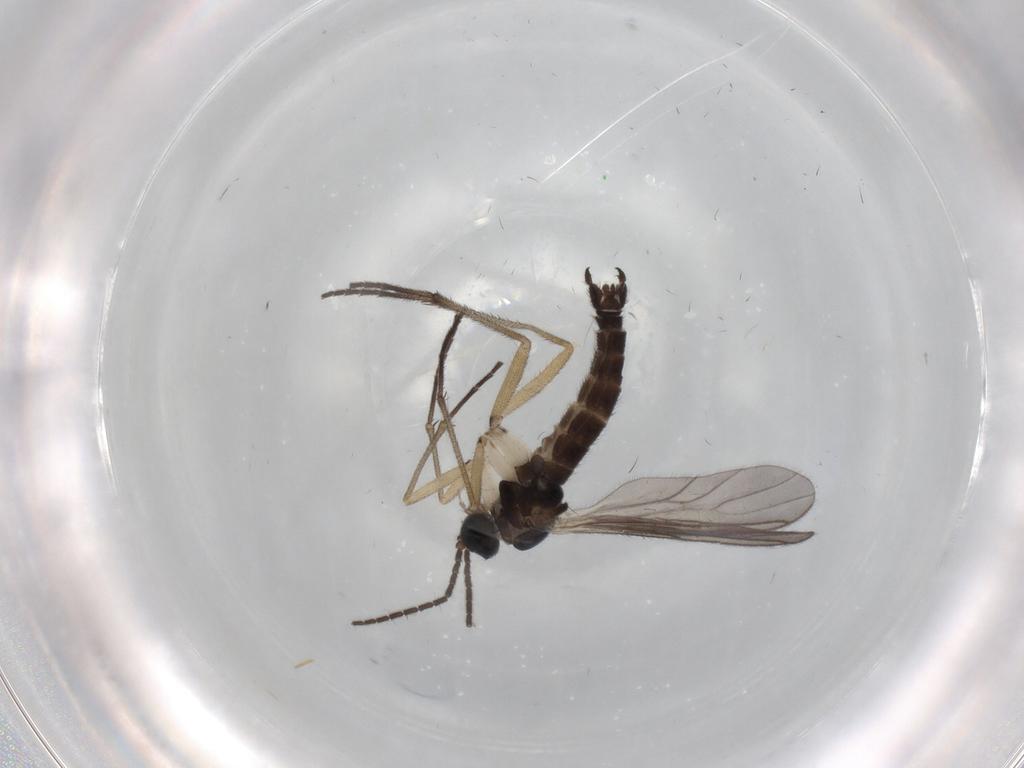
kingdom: Animalia
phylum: Arthropoda
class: Insecta
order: Diptera
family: Sciaridae
